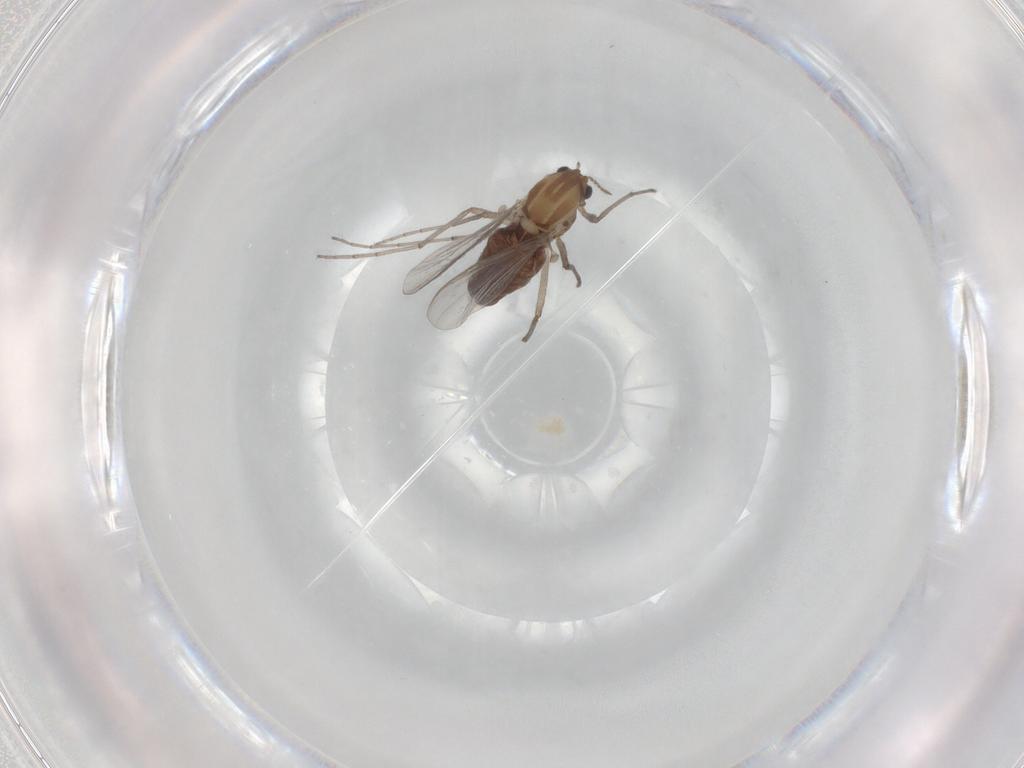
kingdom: Animalia
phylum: Arthropoda
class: Insecta
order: Diptera
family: Chironomidae
